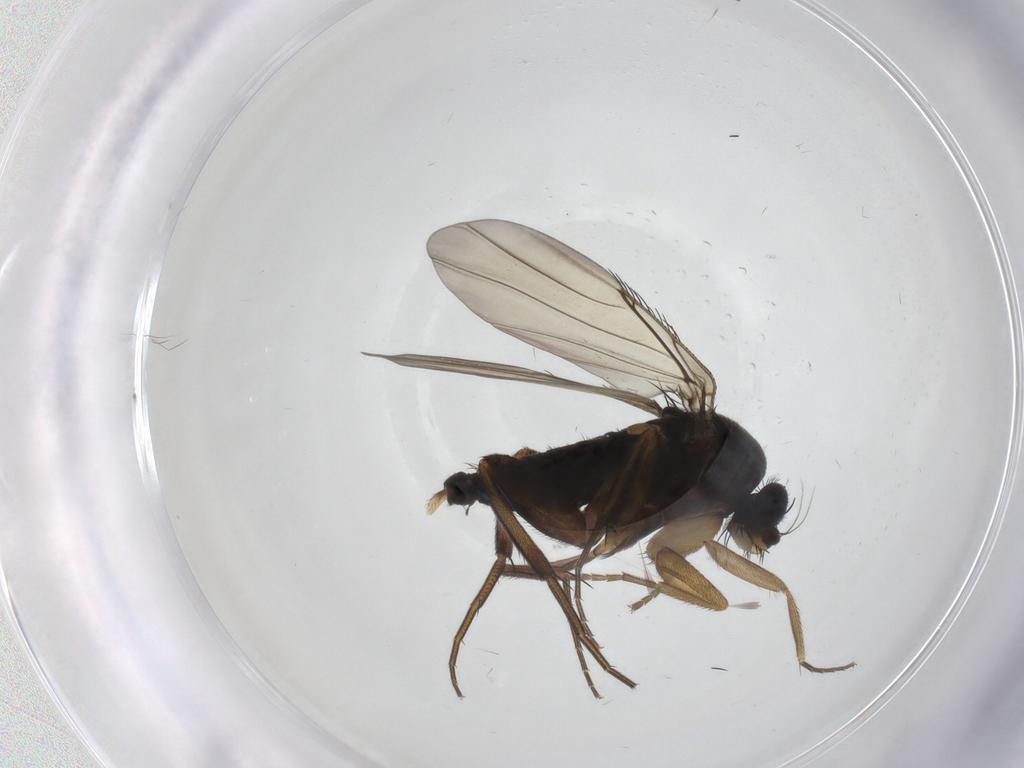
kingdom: Animalia
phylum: Arthropoda
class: Insecta
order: Diptera
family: Phoridae
